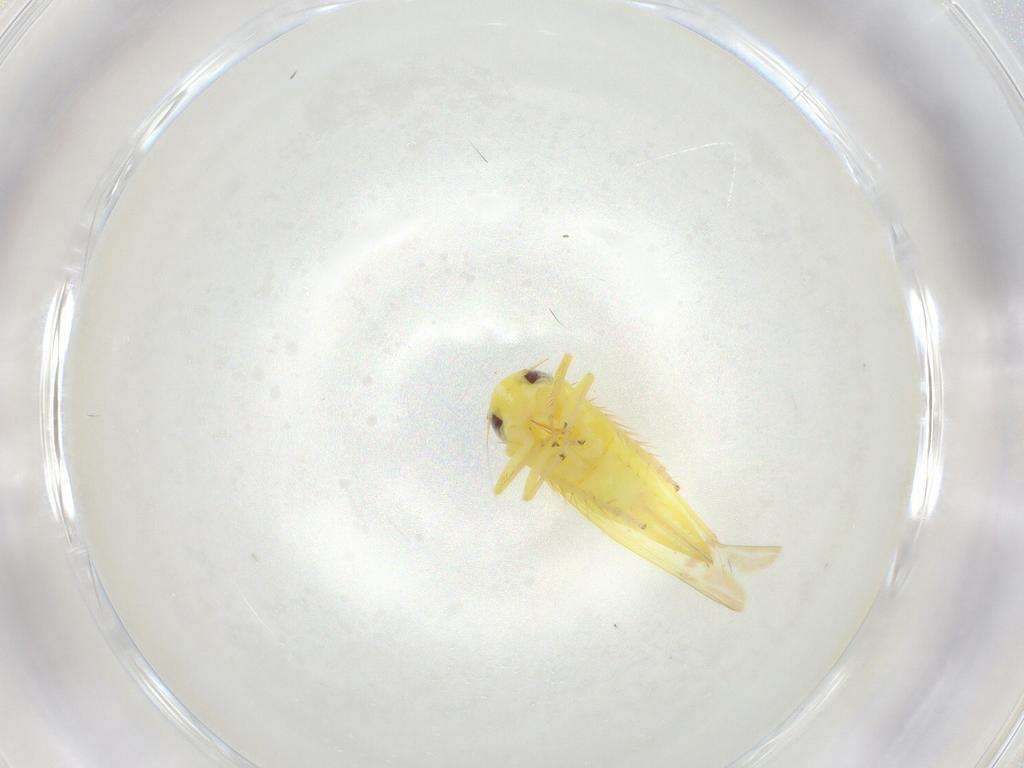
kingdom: Animalia
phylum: Arthropoda
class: Insecta
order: Hemiptera
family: Cicadellidae
